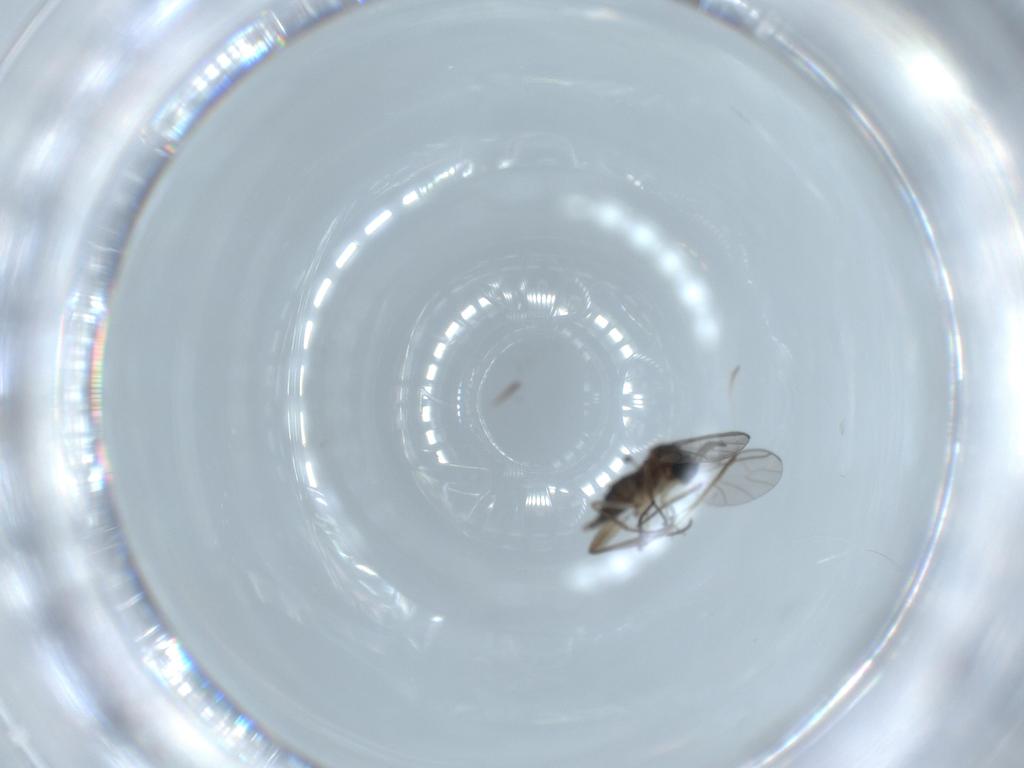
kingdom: Animalia
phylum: Arthropoda
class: Insecta
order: Diptera
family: Sciaridae
